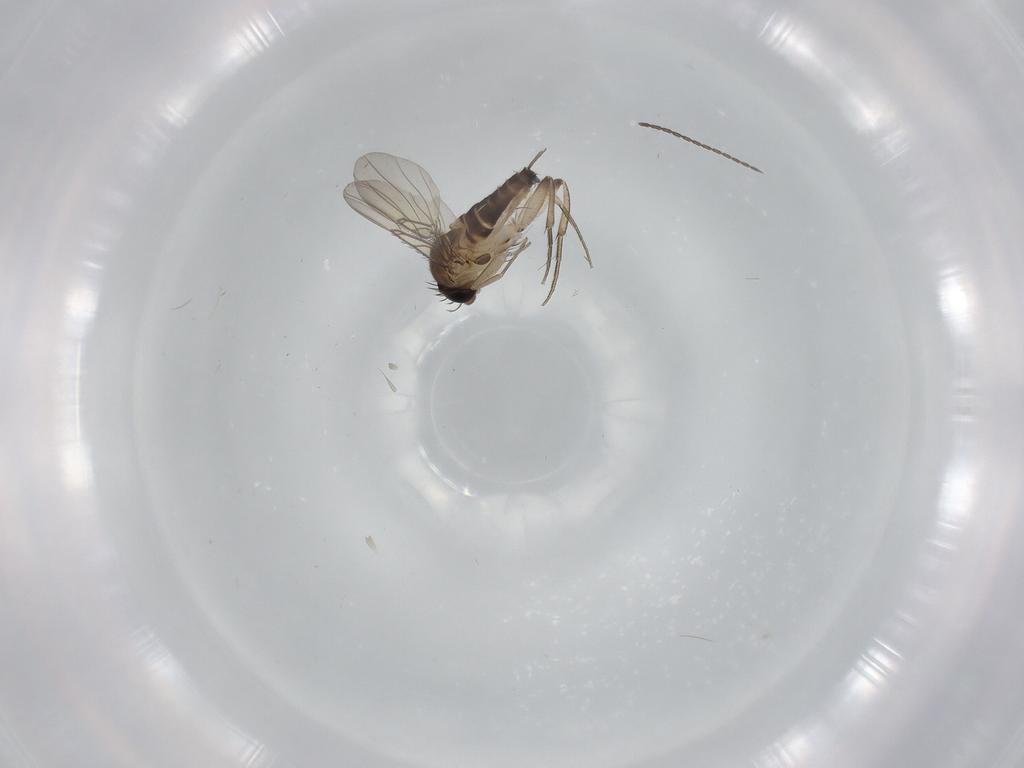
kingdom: Animalia
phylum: Arthropoda
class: Insecta
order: Diptera
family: Phoridae
